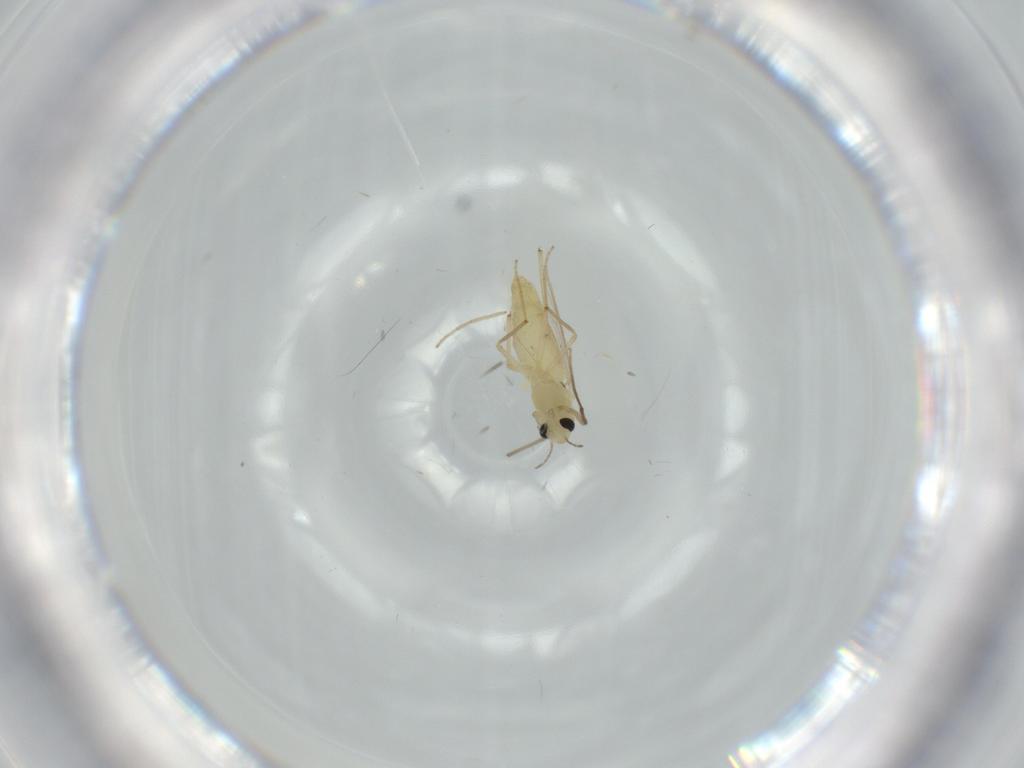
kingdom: Animalia
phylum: Arthropoda
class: Insecta
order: Diptera
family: Chironomidae
